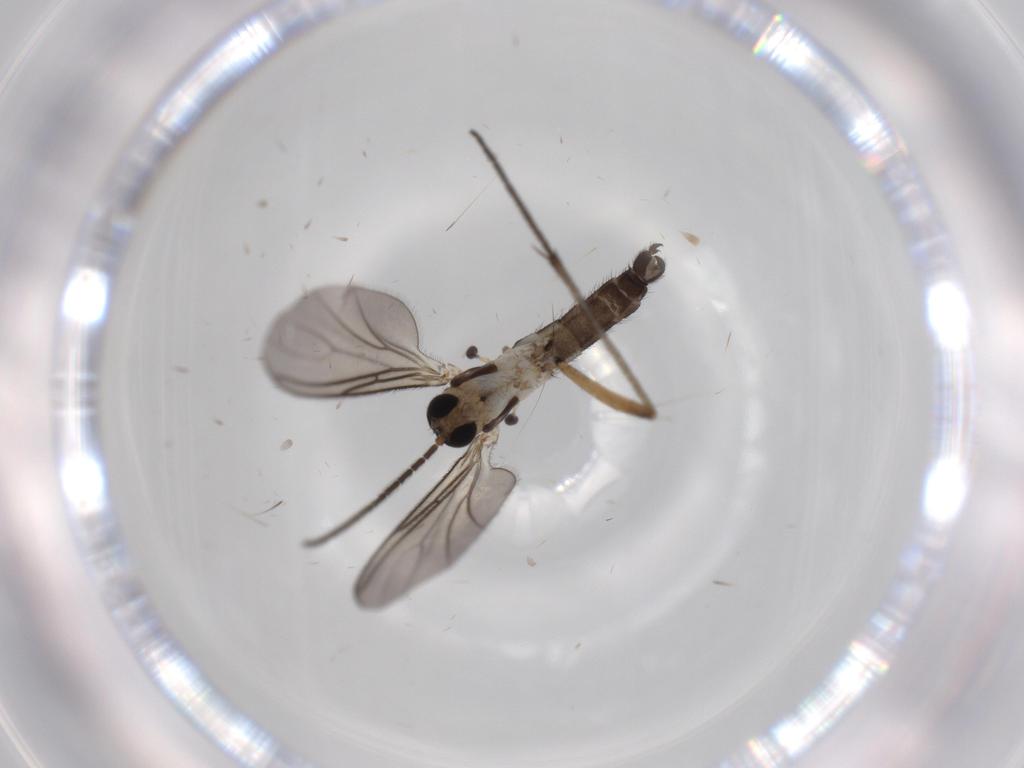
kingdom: Animalia
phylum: Arthropoda
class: Insecta
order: Diptera
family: Sciaridae
